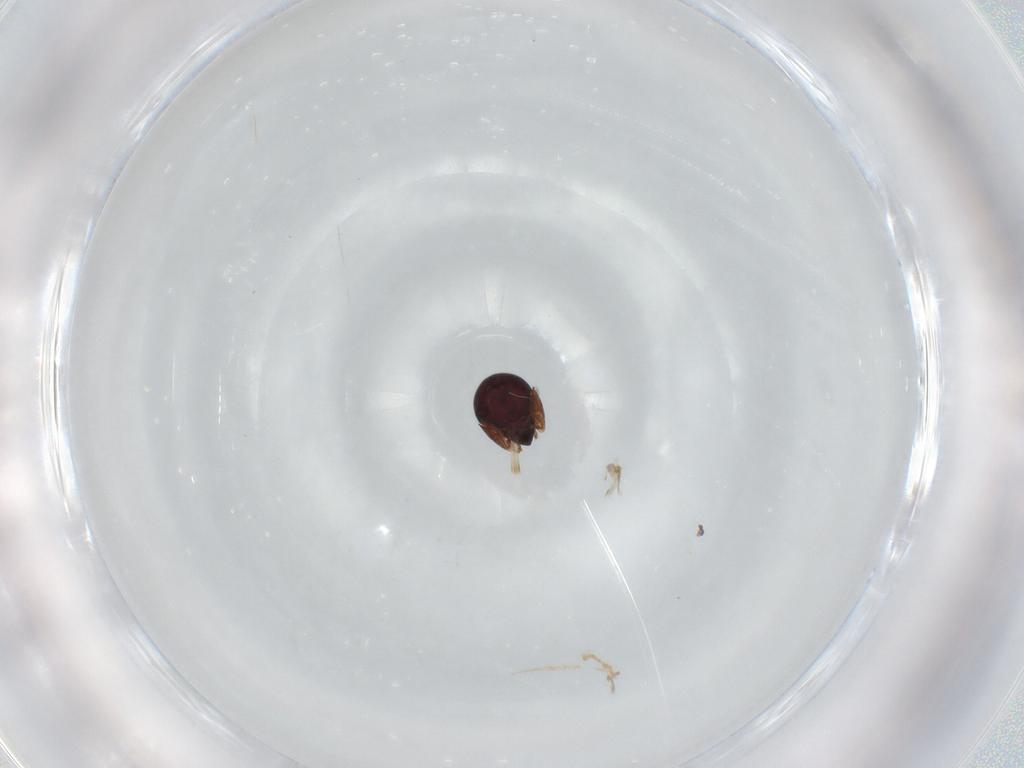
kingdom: Animalia
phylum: Arthropoda
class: Arachnida
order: Sarcoptiformes
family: Ceratozetidae
